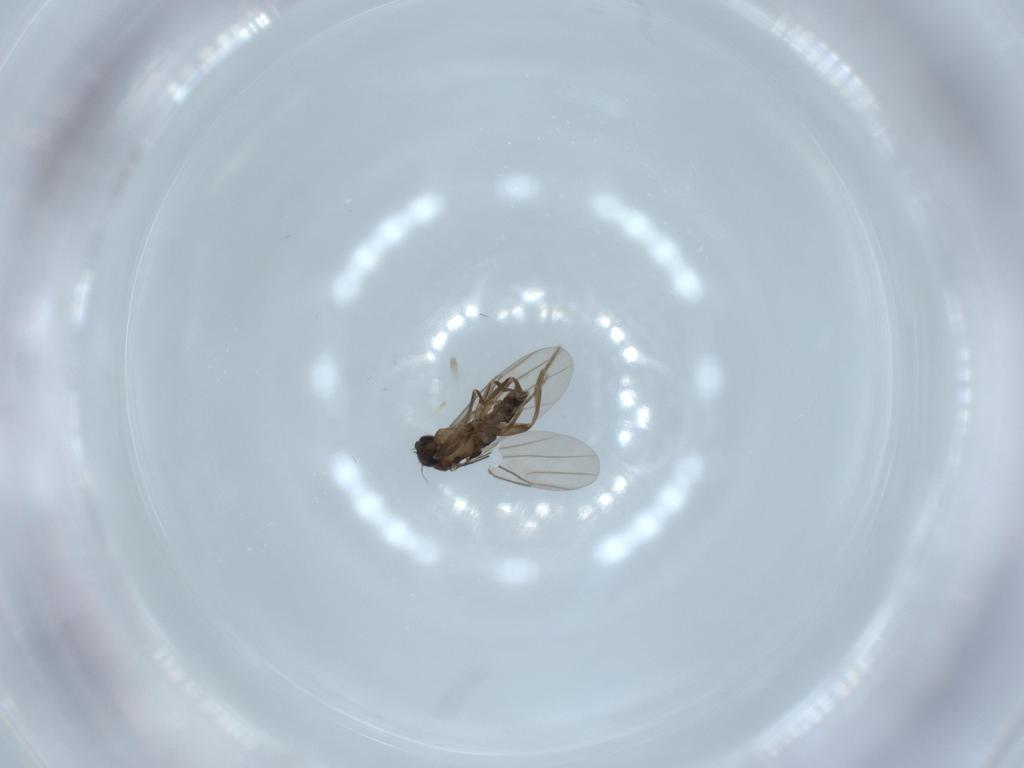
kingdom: Animalia
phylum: Arthropoda
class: Insecta
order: Diptera
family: Phoridae
